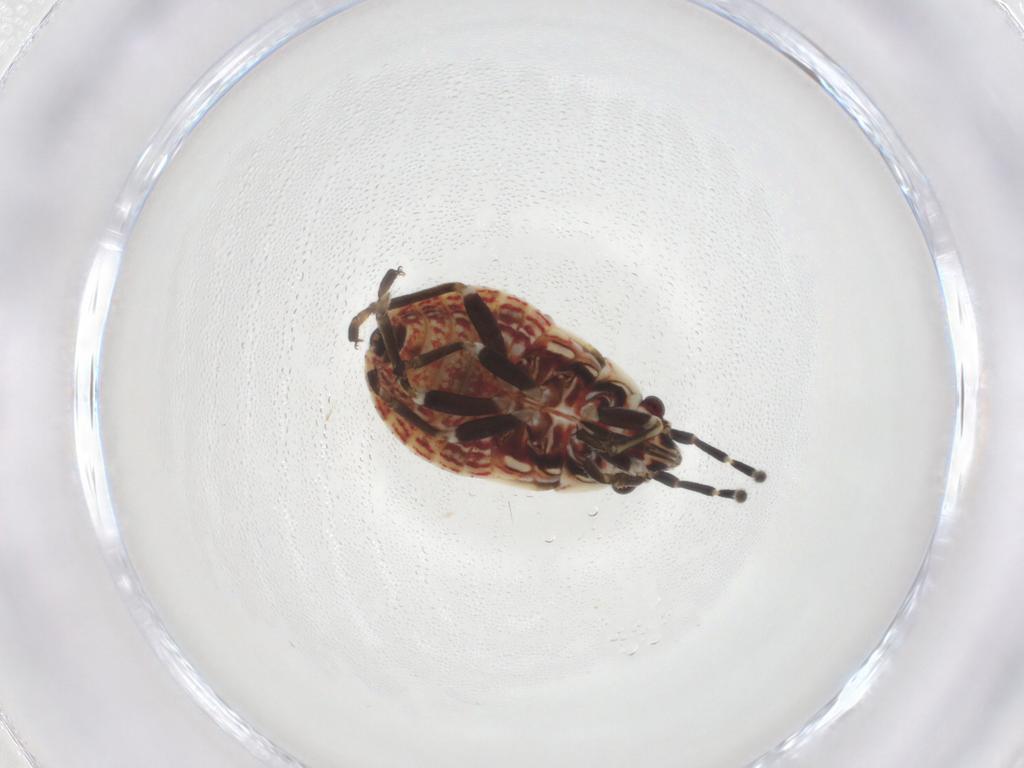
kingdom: Animalia
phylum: Arthropoda
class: Insecta
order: Hemiptera
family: Lygaeidae
